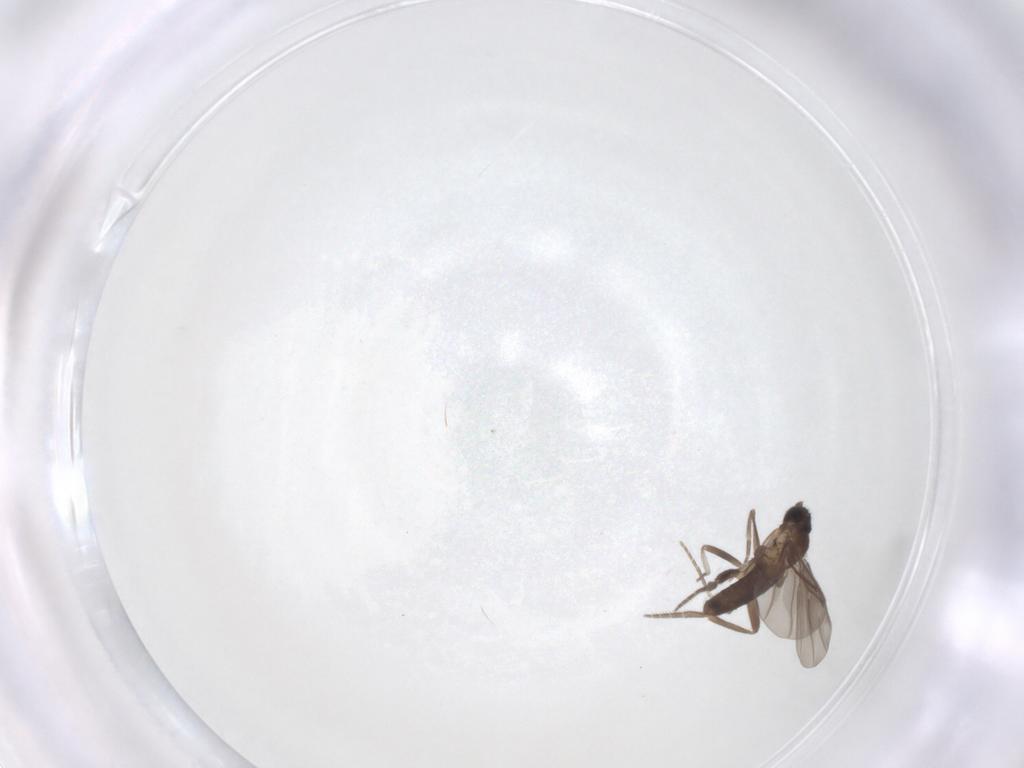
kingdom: Animalia
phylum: Arthropoda
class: Insecta
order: Diptera
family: Phoridae
